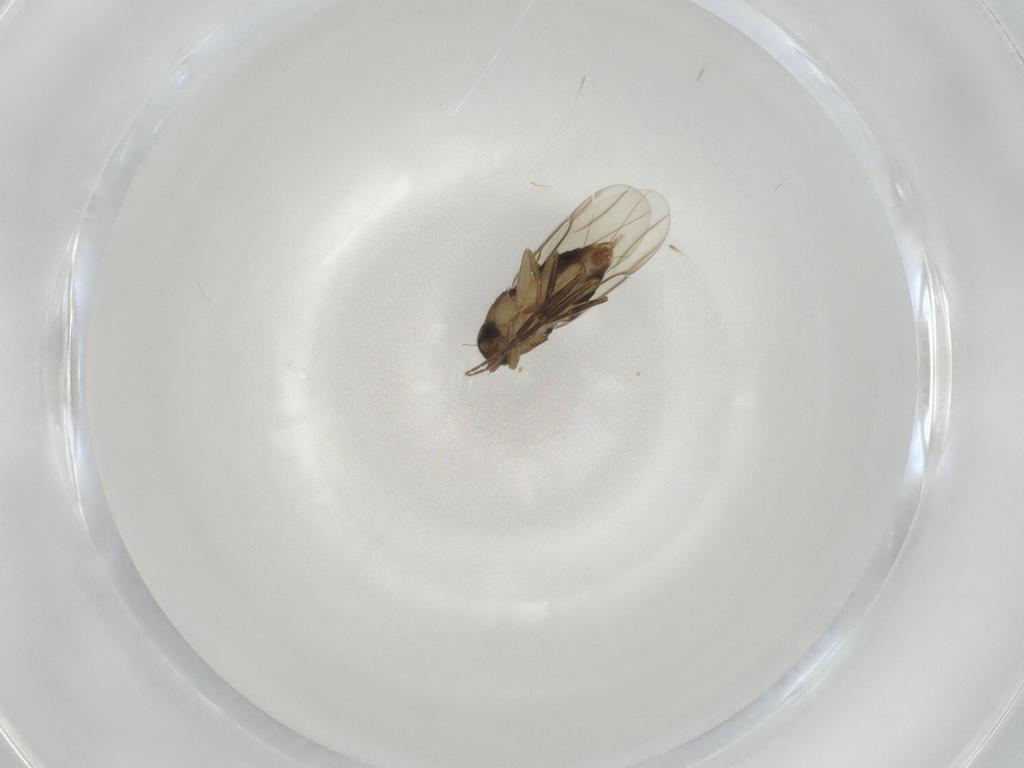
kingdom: Animalia
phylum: Arthropoda
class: Insecta
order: Diptera
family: Phoridae
